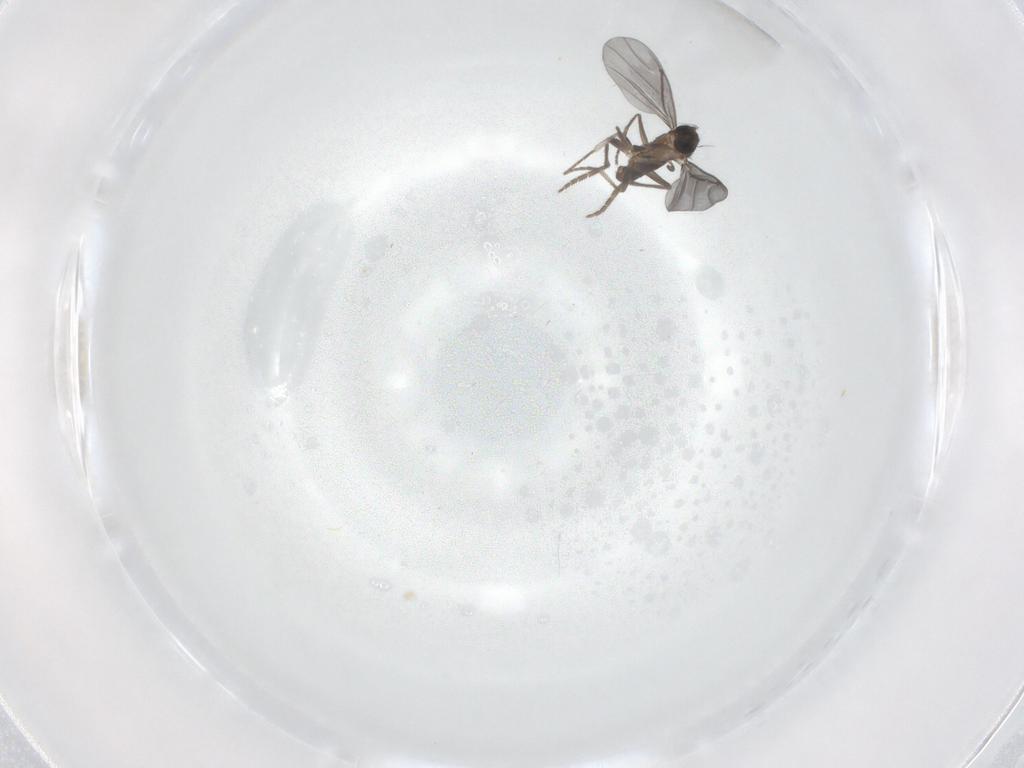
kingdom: Animalia
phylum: Arthropoda
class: Insecta
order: Diptera
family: Phoridae
